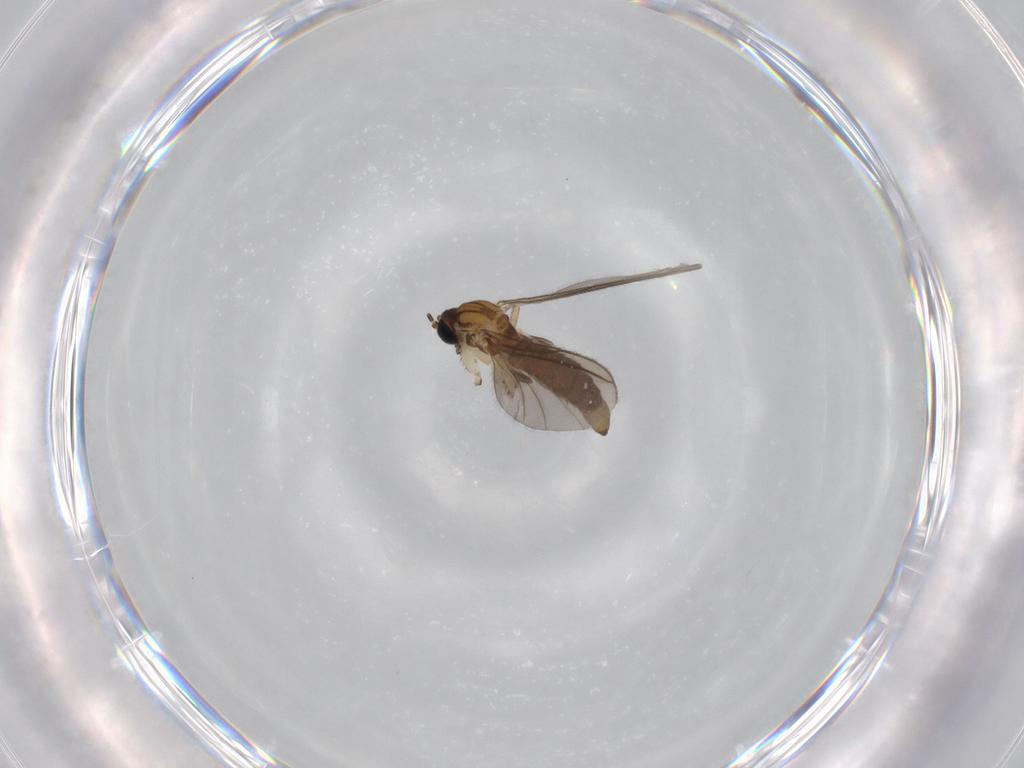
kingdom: Animalia
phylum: Arthropoda
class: Insecta
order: Diptera
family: Sciaridae
